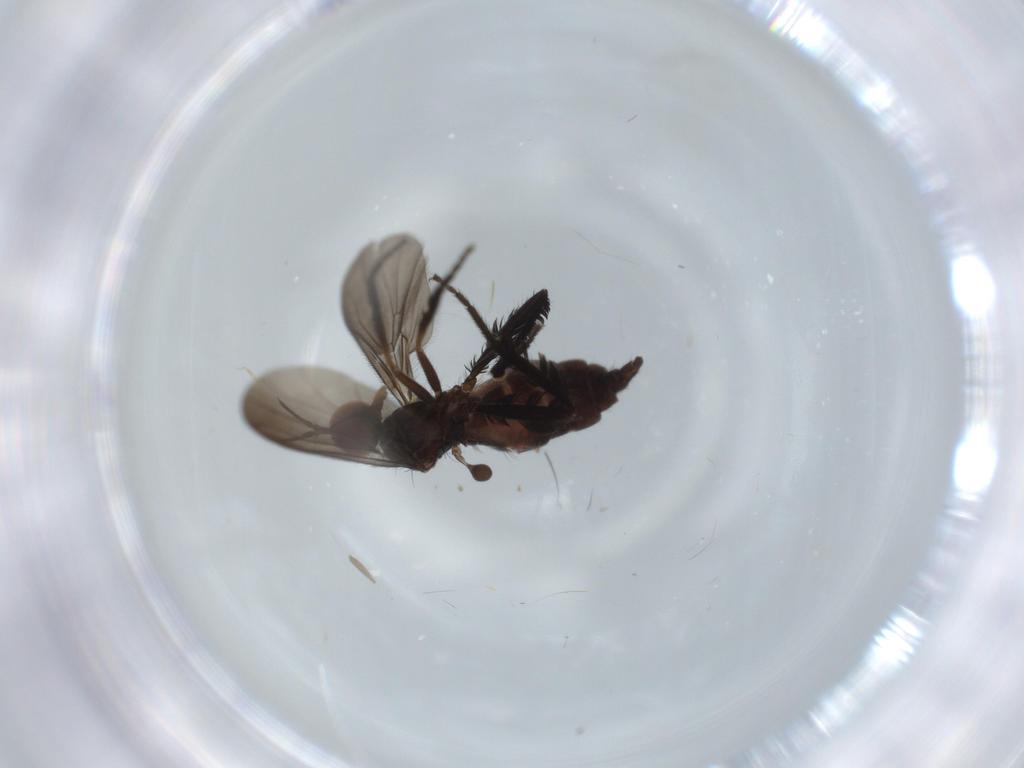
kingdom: Animalia
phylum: Arthropoda
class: Insecta
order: Diptera
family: Empididae
